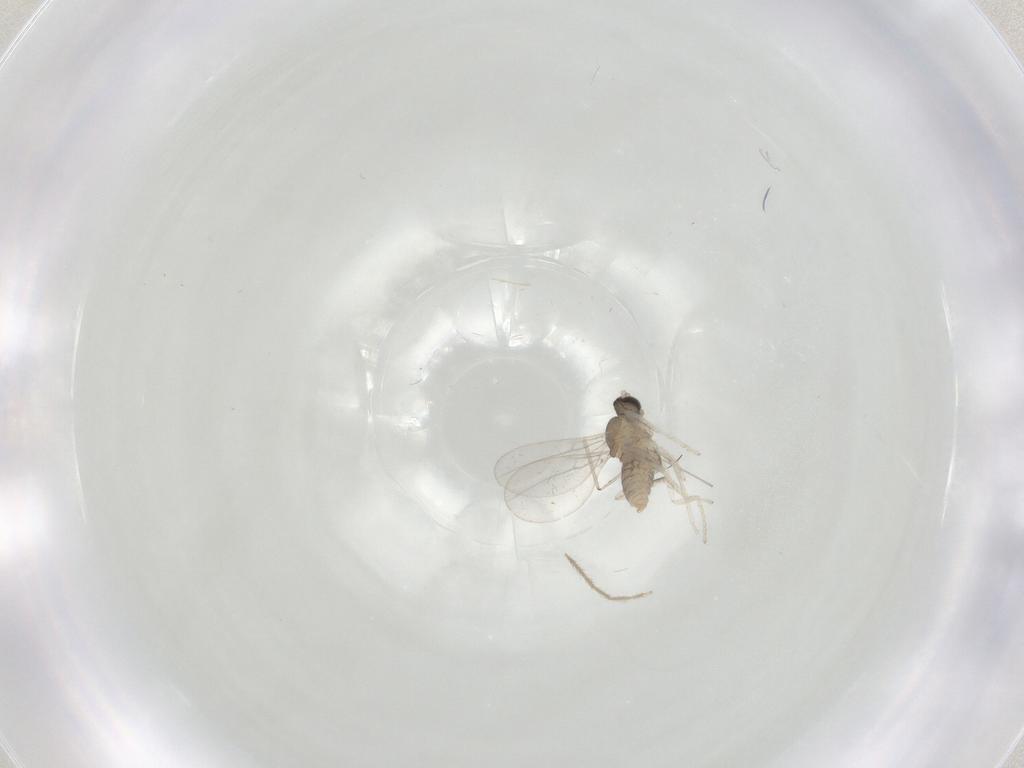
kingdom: Animalia
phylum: Arthropoda
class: Insecta
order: Diptera
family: Cecidomyiidae
